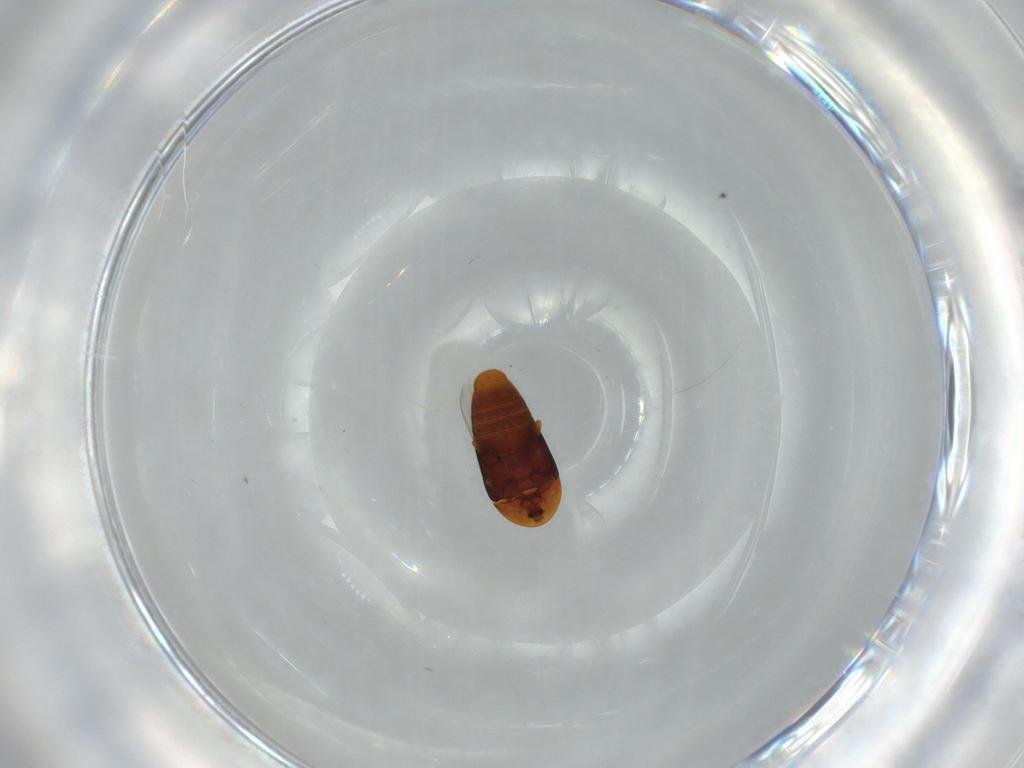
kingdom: Animalia
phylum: Arthropoda
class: Insecta
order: Coleoptera
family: Corylophidae
